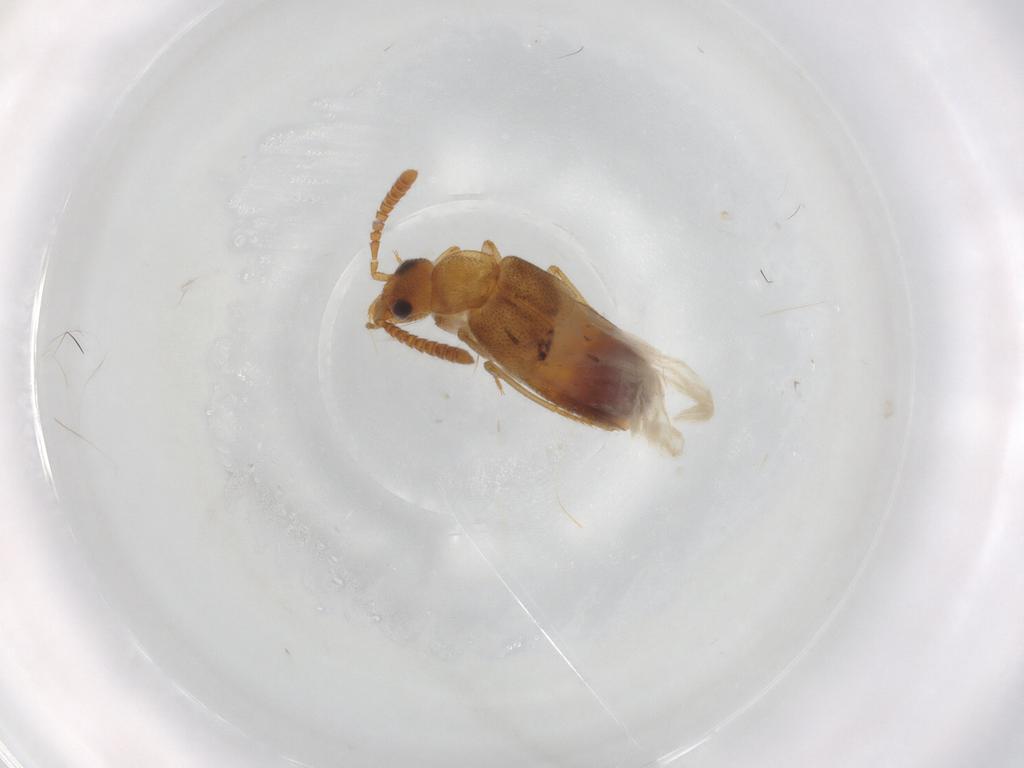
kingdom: Animalia
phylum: Arthropoda
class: Insecta
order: Coleoptera
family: Staphylinidae
